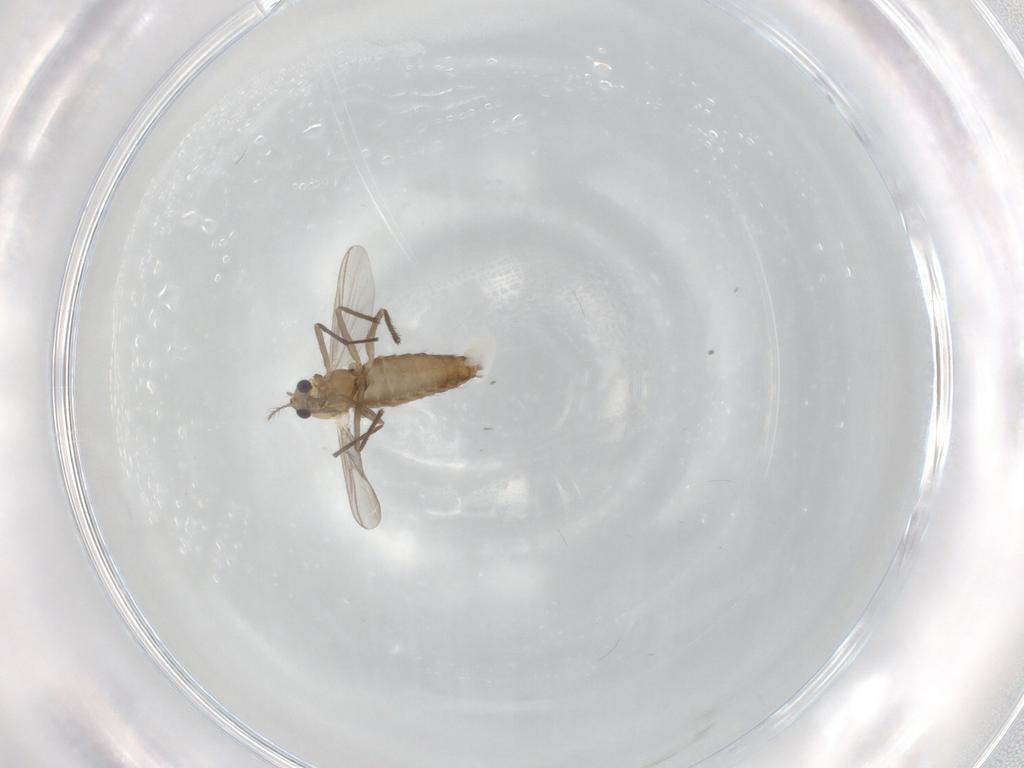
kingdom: Animalia
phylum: Arthropoda
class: Insecta
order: Diptera
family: Chironomidae
